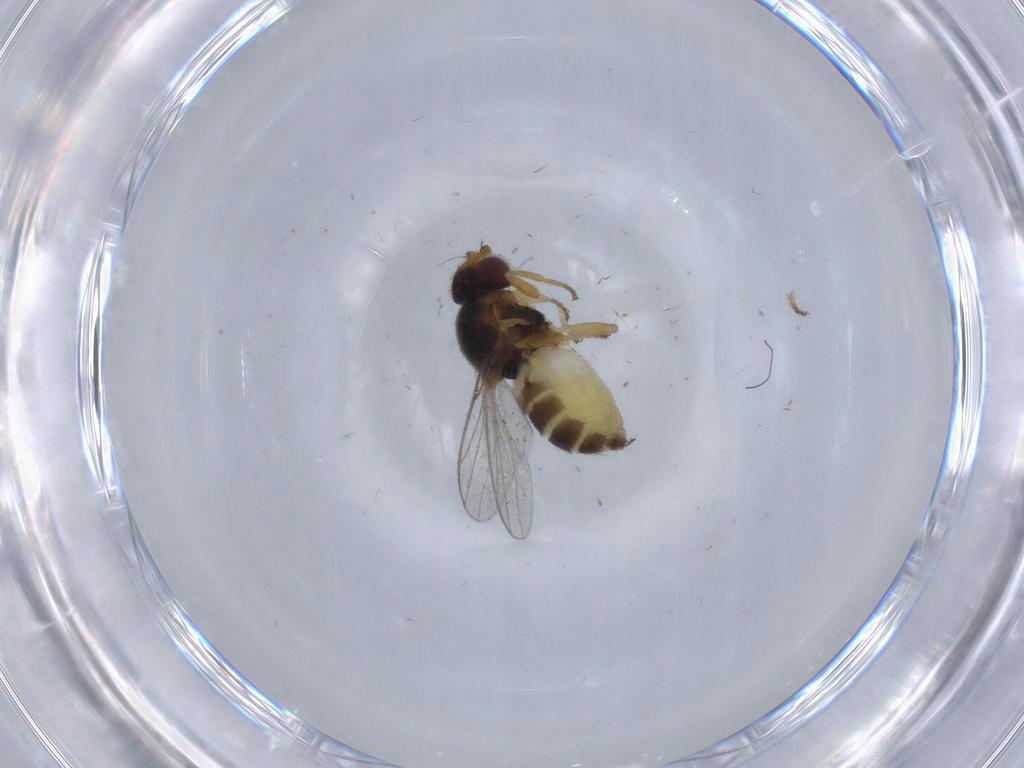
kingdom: Animalia
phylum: Arthropoda
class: Insecta
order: Diptera
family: Chloropidae
